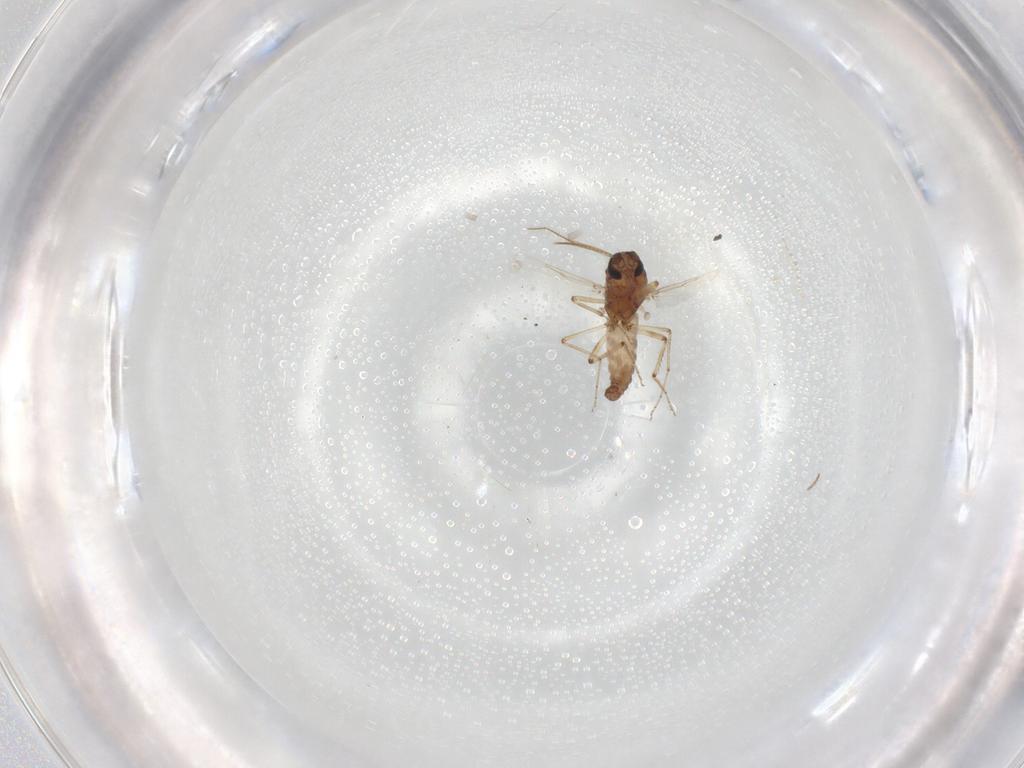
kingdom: Animalia
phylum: Arthropoda
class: Insecta
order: Diptera
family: Ceratopogonidae
